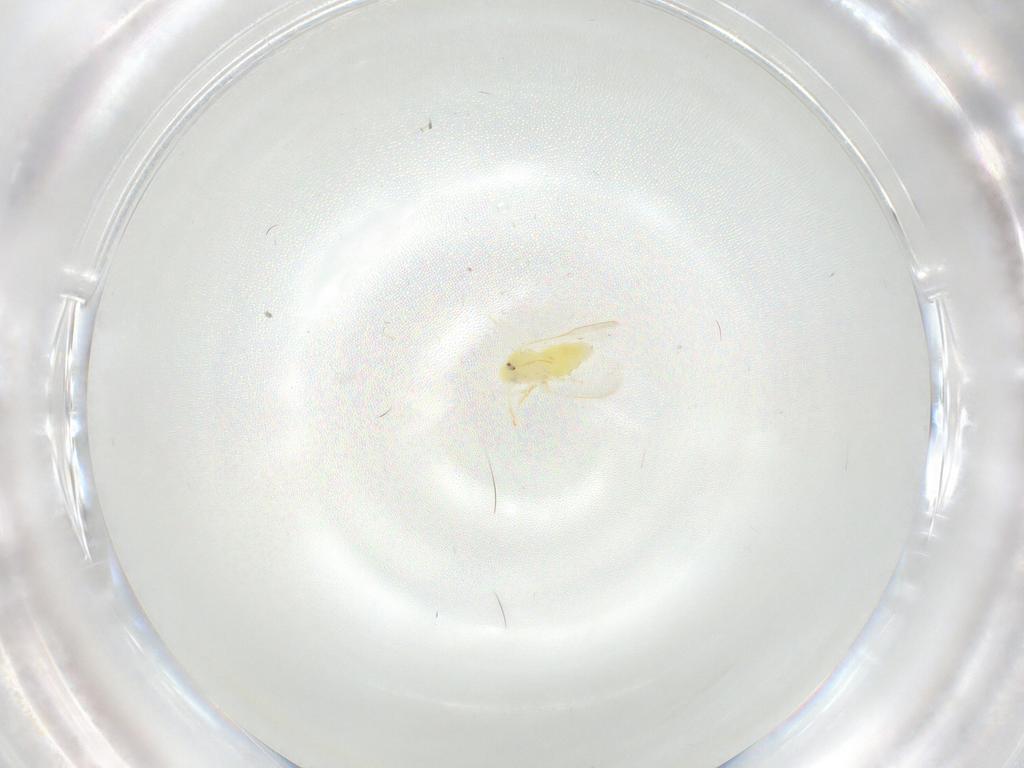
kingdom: Animalia
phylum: Arthropoda
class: Insecta
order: Hemiptera
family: Aleyrodidae
